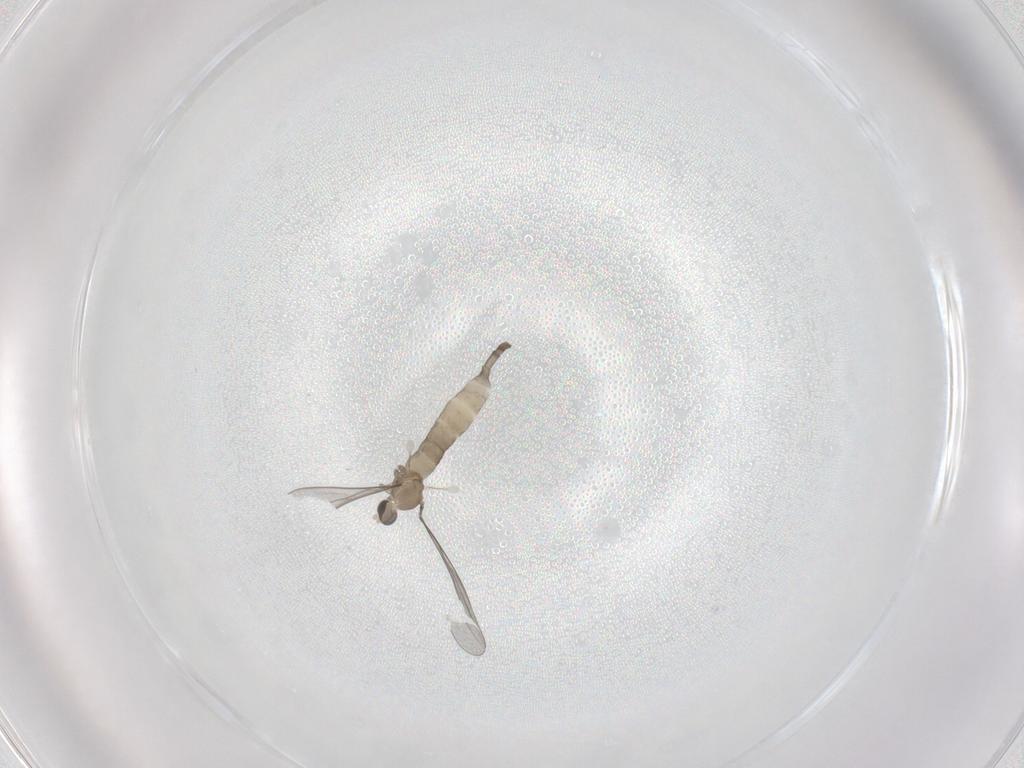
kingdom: Animalia
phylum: Arthropoda
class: Insecta
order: Diptera
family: Cecidomyiidae
